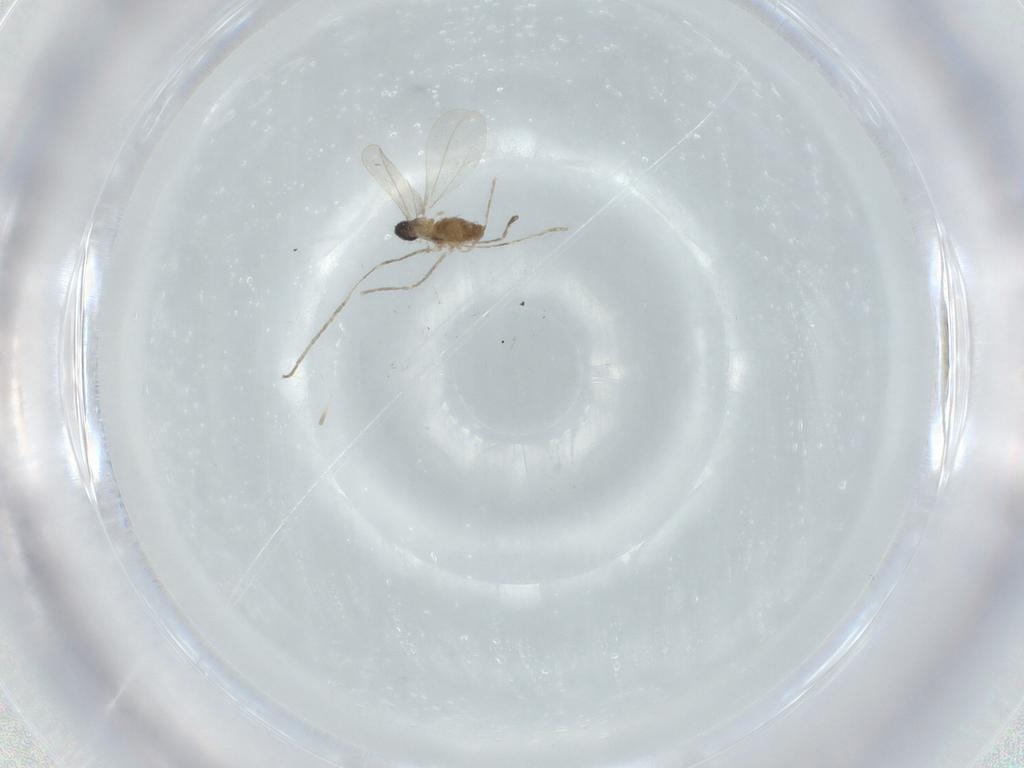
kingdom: Animalia
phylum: Arthropoda
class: Insecta
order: Diptera
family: Cecidomyiidae
